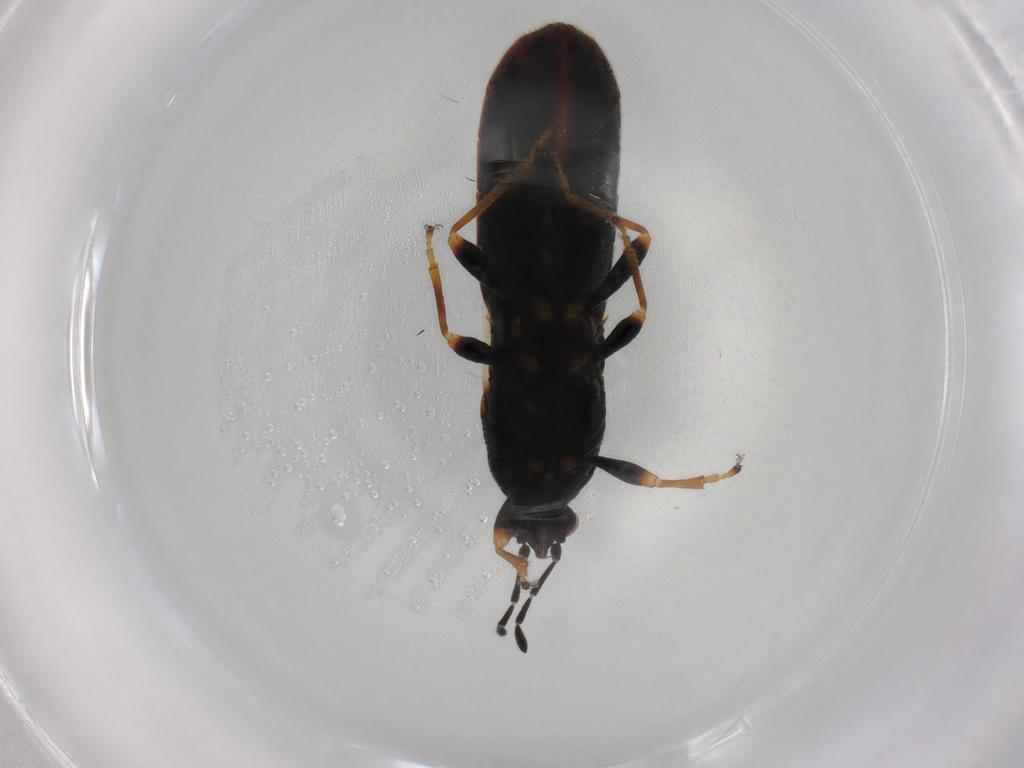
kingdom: Animalia
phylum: Arthropoda
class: Insecta
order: Hemiptera
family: Blissidae
